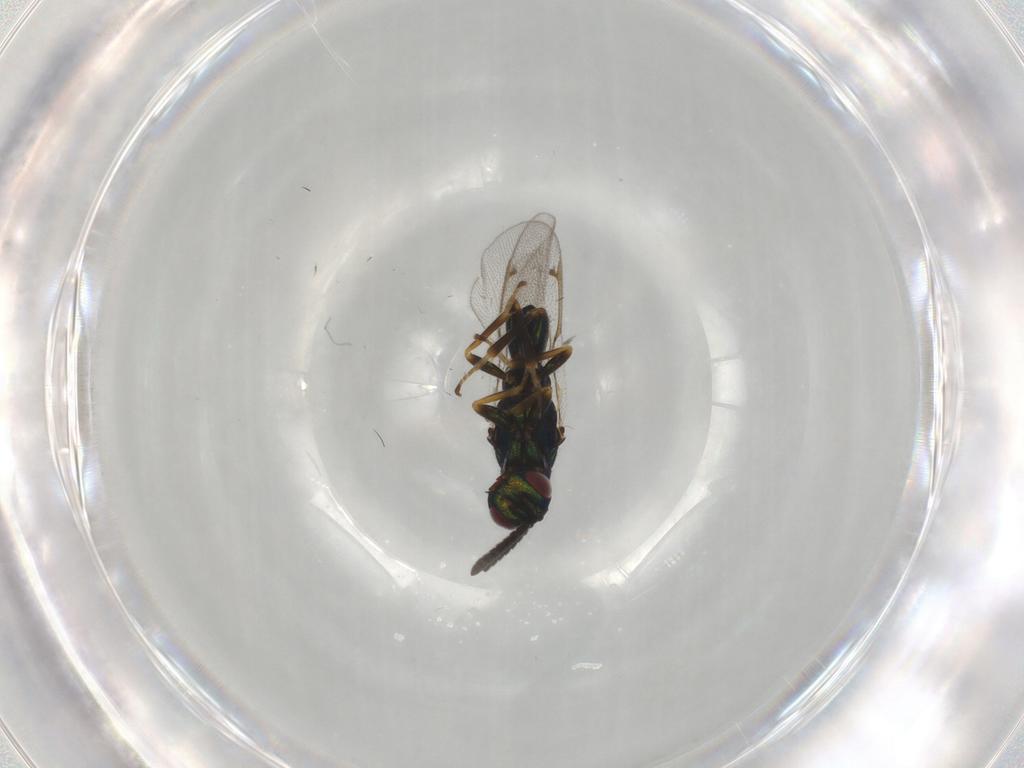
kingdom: Animalia
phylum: Arthropoda
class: Insecta
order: Hymenoptera
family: Torymidae
